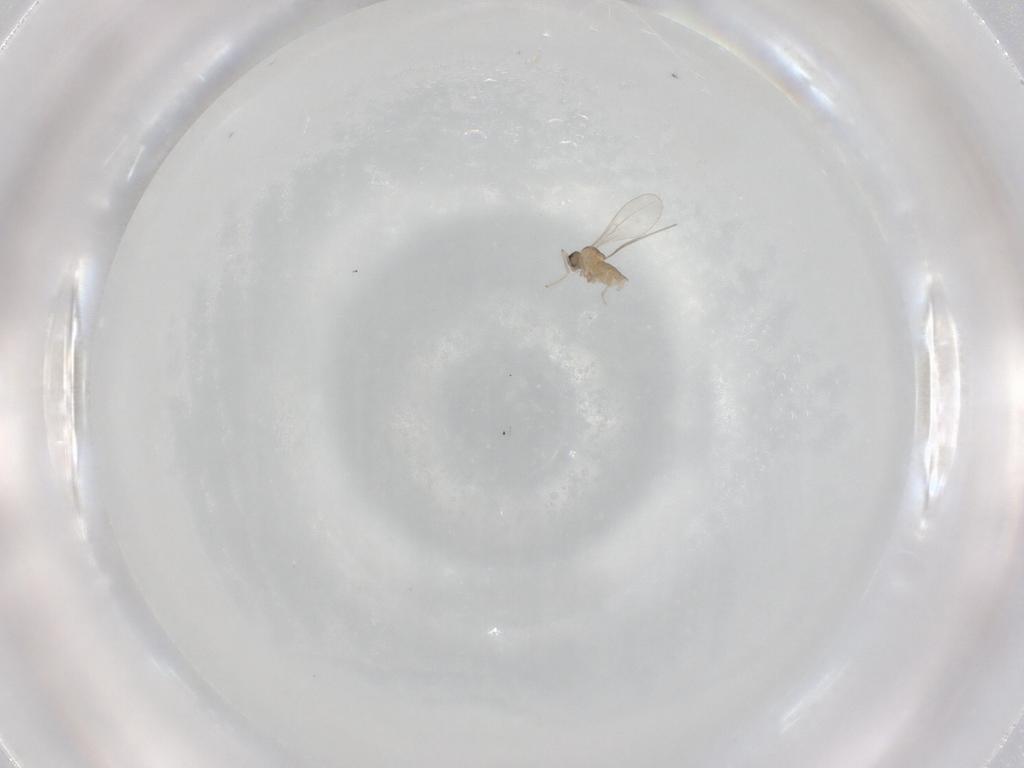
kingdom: Animalia
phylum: Arthropoda
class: Insecta
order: Diptera
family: Cecidomyiidae
